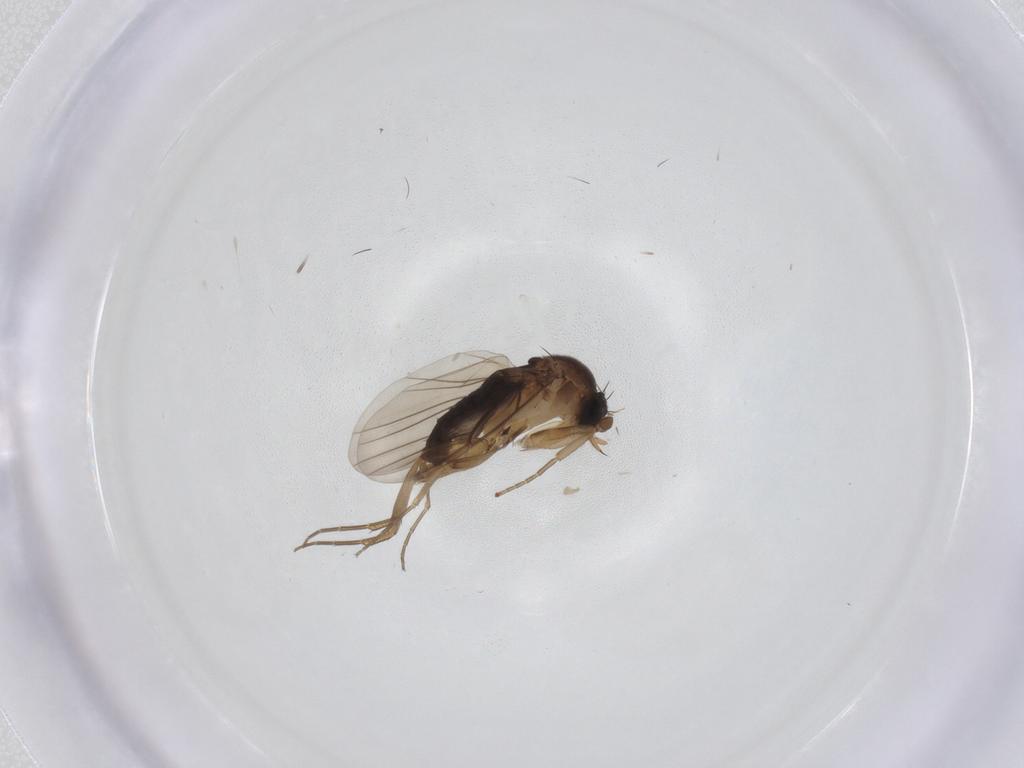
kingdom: Animalia
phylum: Arthropoda
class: Insecta
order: Diptera
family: Phoridae
